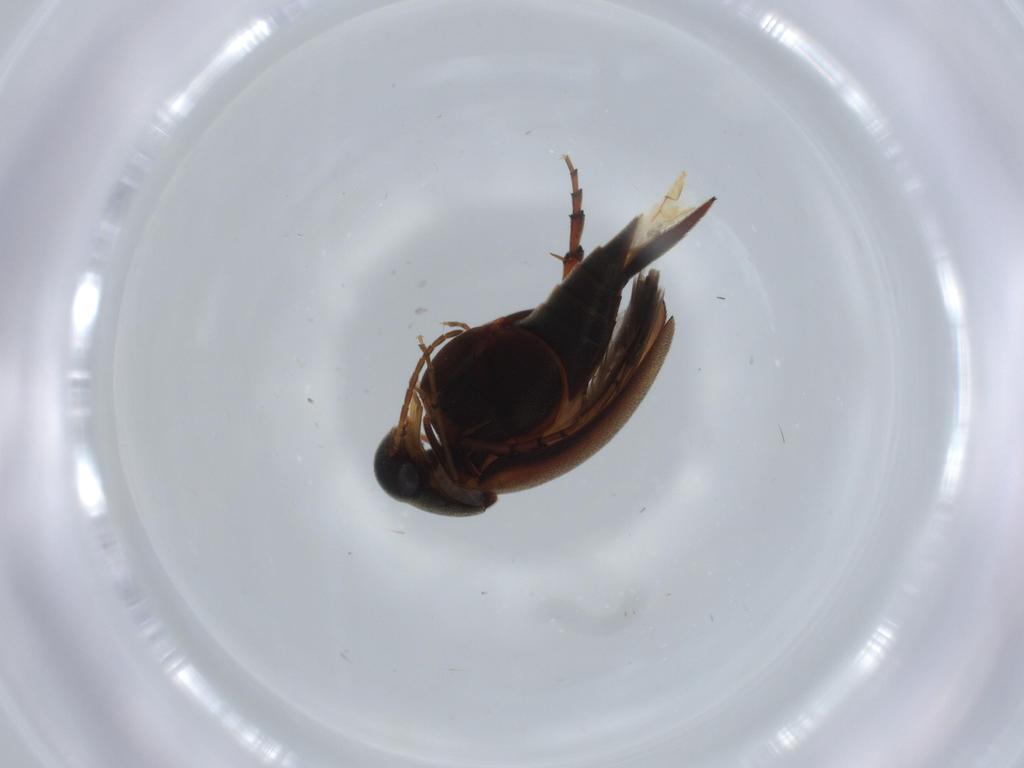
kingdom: Animalia
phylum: Arthropoda
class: Insecta
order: Coleoptera
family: Mordellidae
